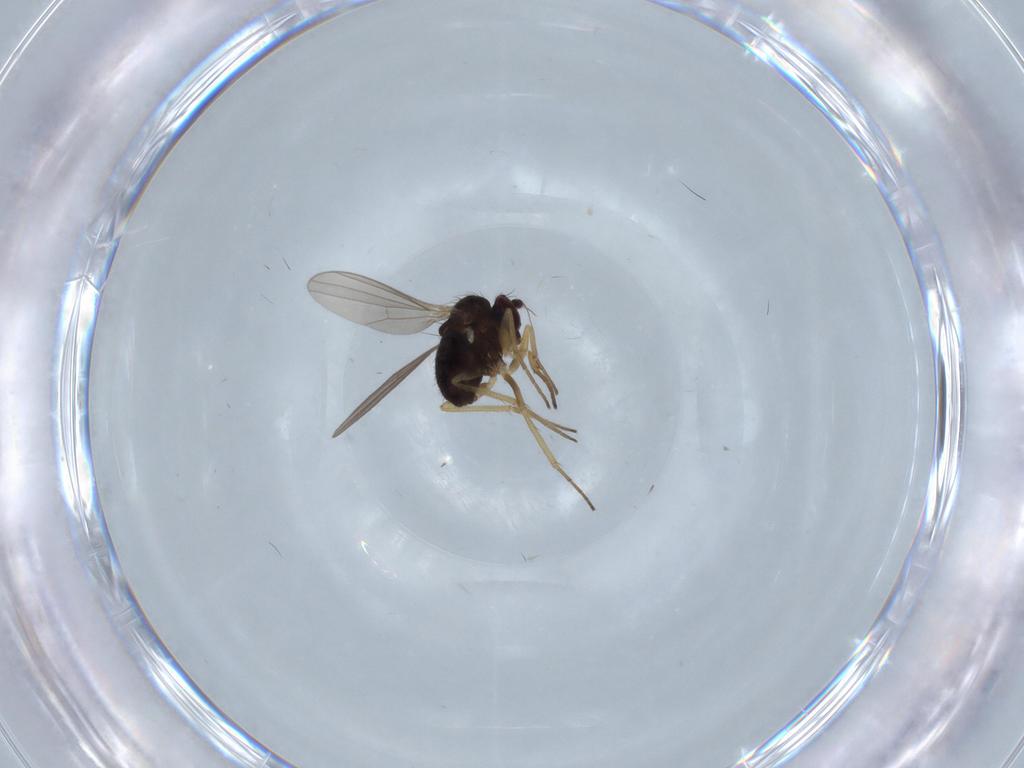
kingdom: Animalia
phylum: Arthropoda
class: Insecta
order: Diptera
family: Dolichopodidae
